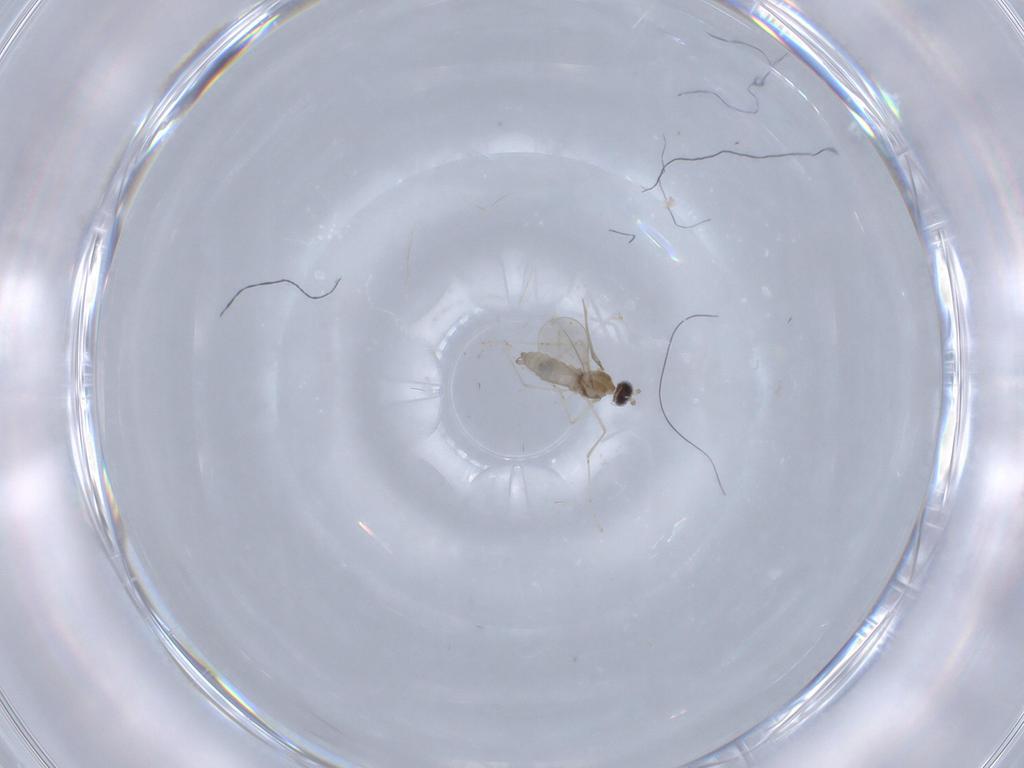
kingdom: Animalia
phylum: Arthropoda
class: Insecta
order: Diptera
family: Cecidomyiidae
